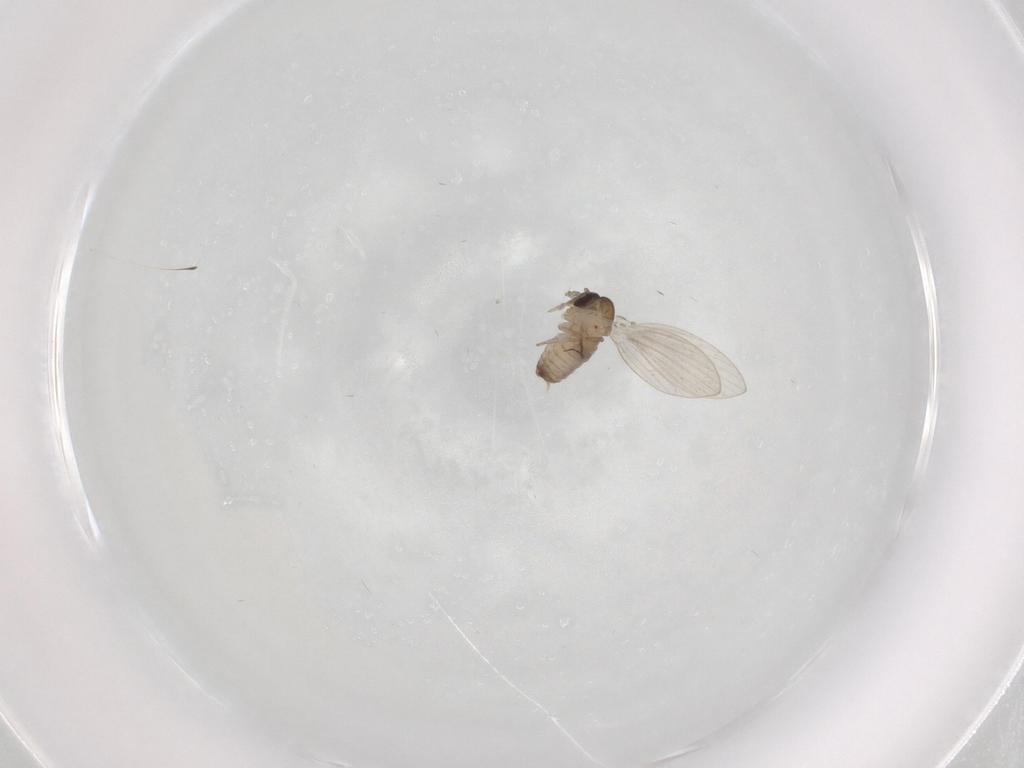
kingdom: Animalia
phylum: Arthropoda
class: Insecta
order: Diptera
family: Psychodidae
